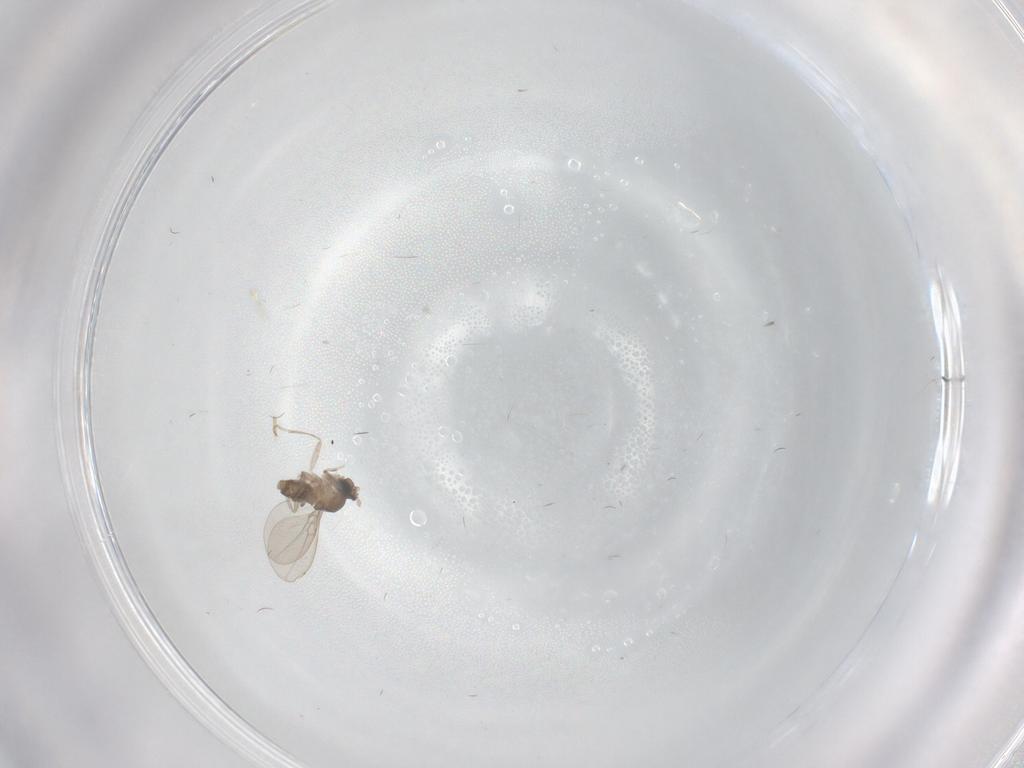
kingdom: Animalia
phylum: Arthropoda
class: Insecta
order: Diptera
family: Cecidomyiidae
